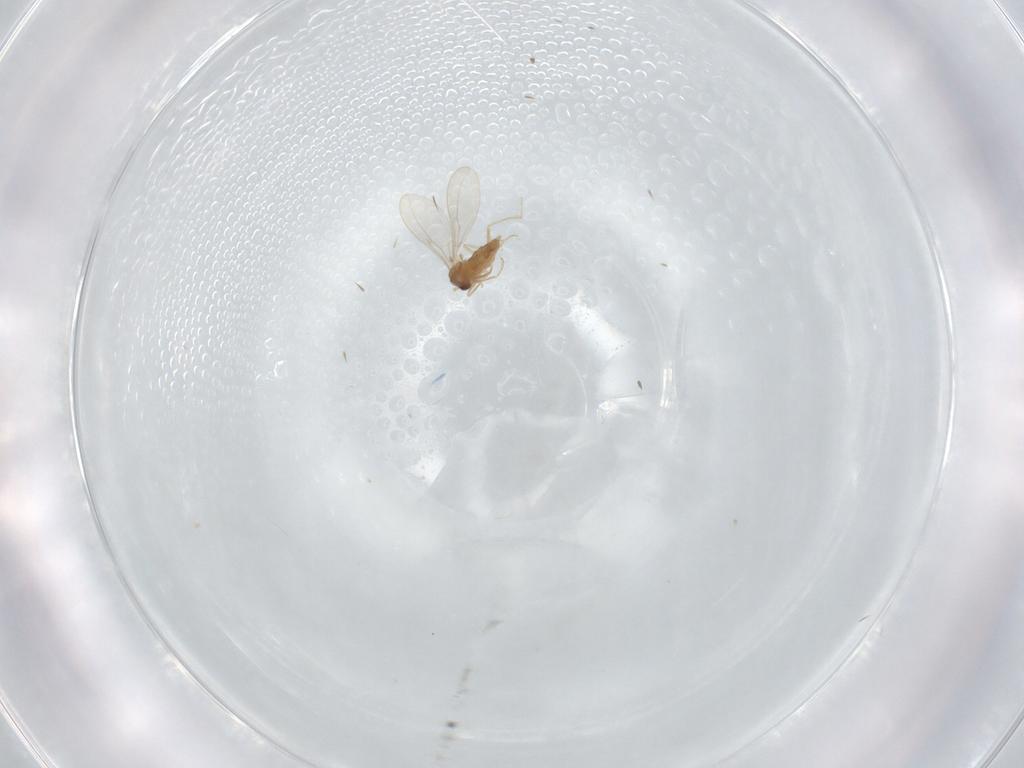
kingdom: Animalia
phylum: Arthropoda
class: Insecta
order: Diptera
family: Cecidomyiidae
